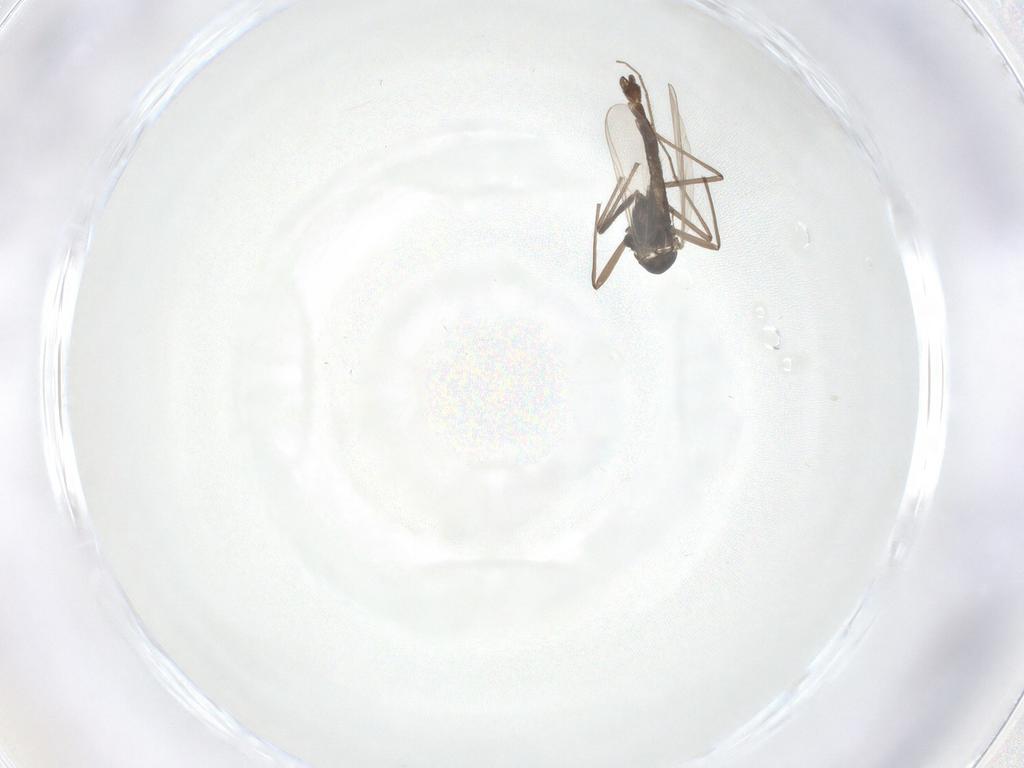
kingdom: Animalia
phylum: Arthropoda
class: Insecta
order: Diptera
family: Chironomidae
